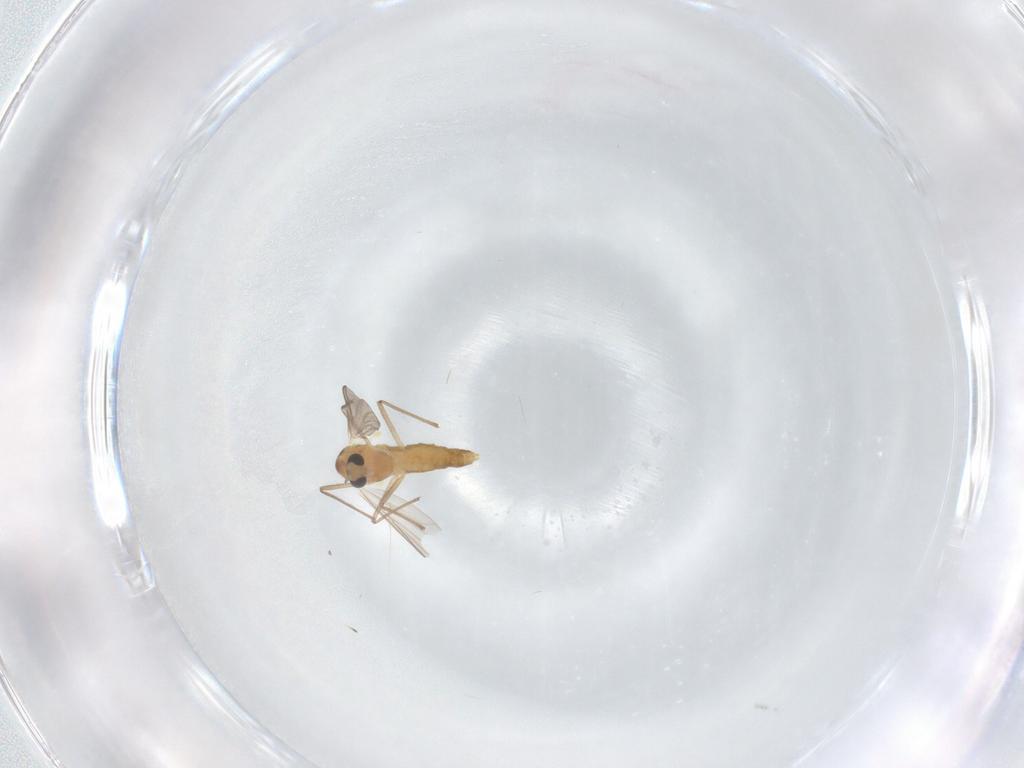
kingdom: Animalia
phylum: Arthropoda
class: Insecta
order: Diptera
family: Chironomidae
